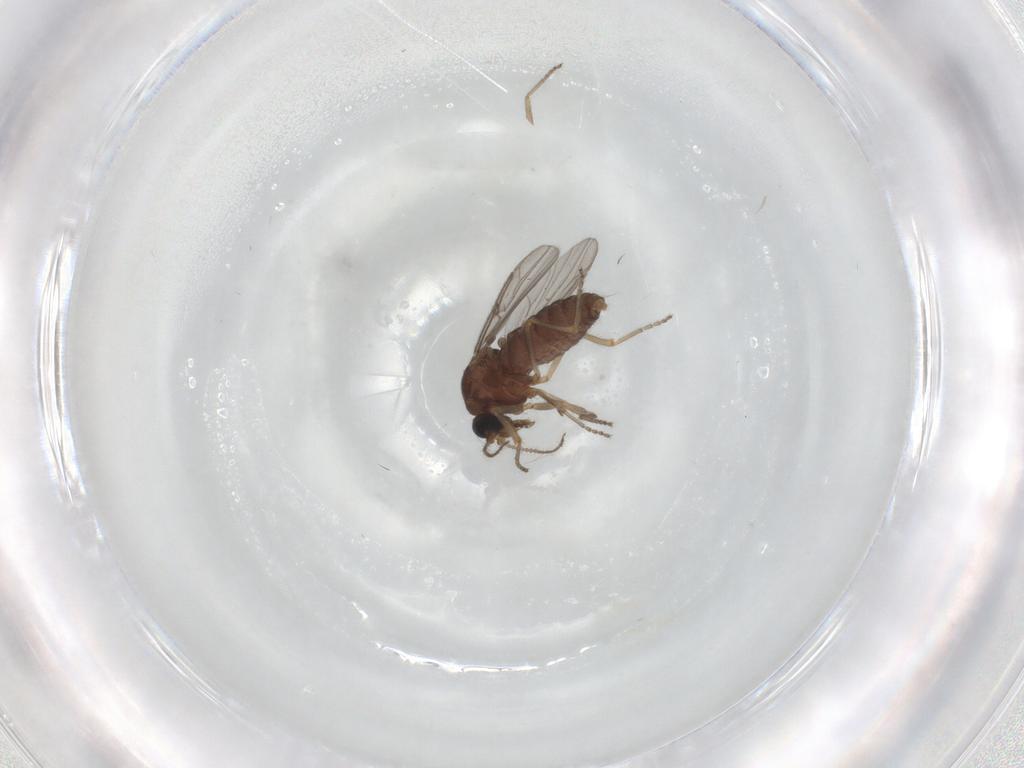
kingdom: Animalia
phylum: Arthropoda
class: Insecta
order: Diptera
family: Ceratopogonidae
